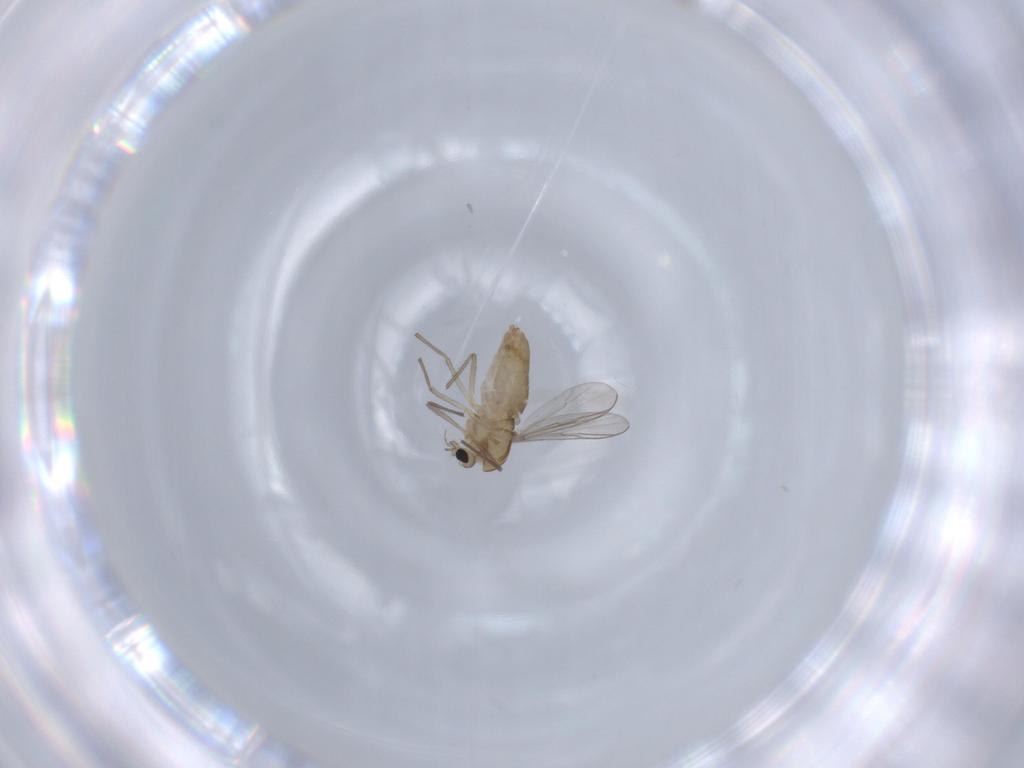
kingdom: Animalia
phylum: Arthropoda
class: Insecta
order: Diptera
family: Chironomidae
